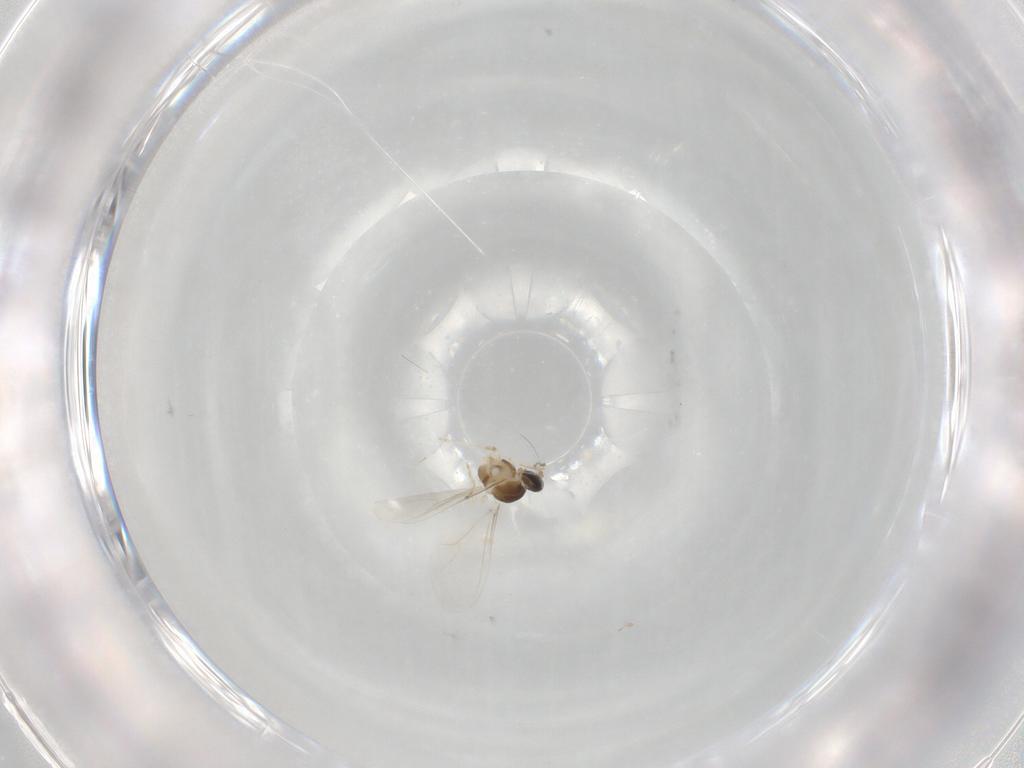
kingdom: Animalia
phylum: Arthropoda
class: Insecta
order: Diptera
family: Cecidomyiidae
